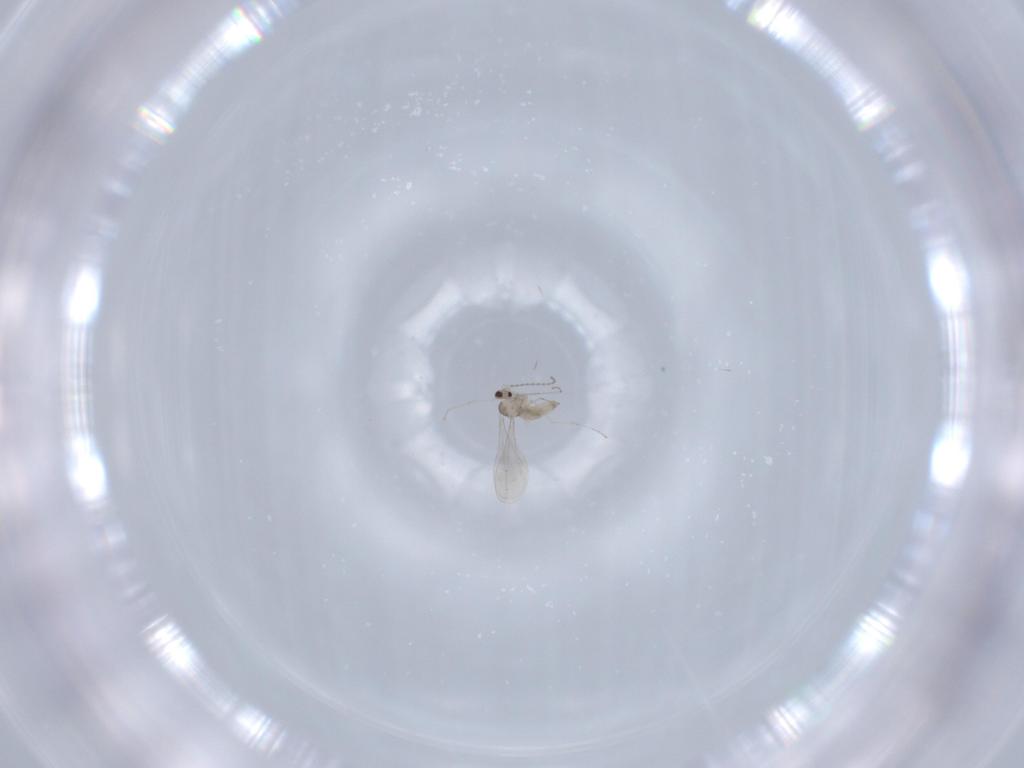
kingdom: Animalia
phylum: Arthropoda
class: Insecta
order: Diptera
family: Cecidomyiidae
